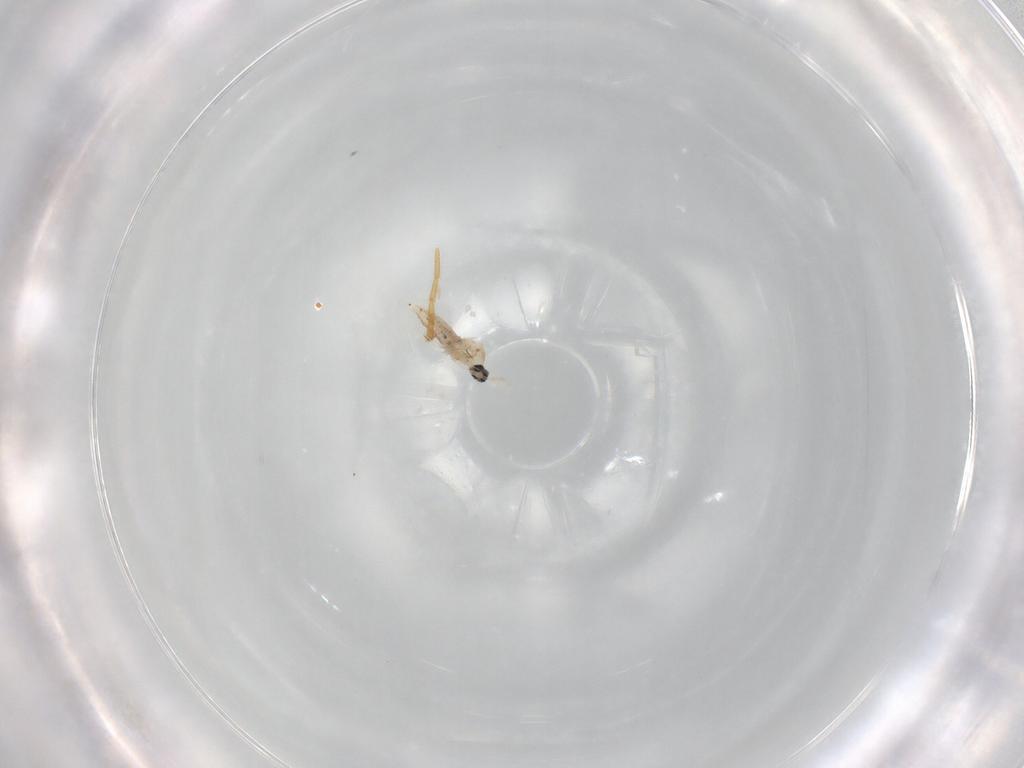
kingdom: Animalia
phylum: Arthropoda
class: Insecta
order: Diptera
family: Cecidomyiidae
